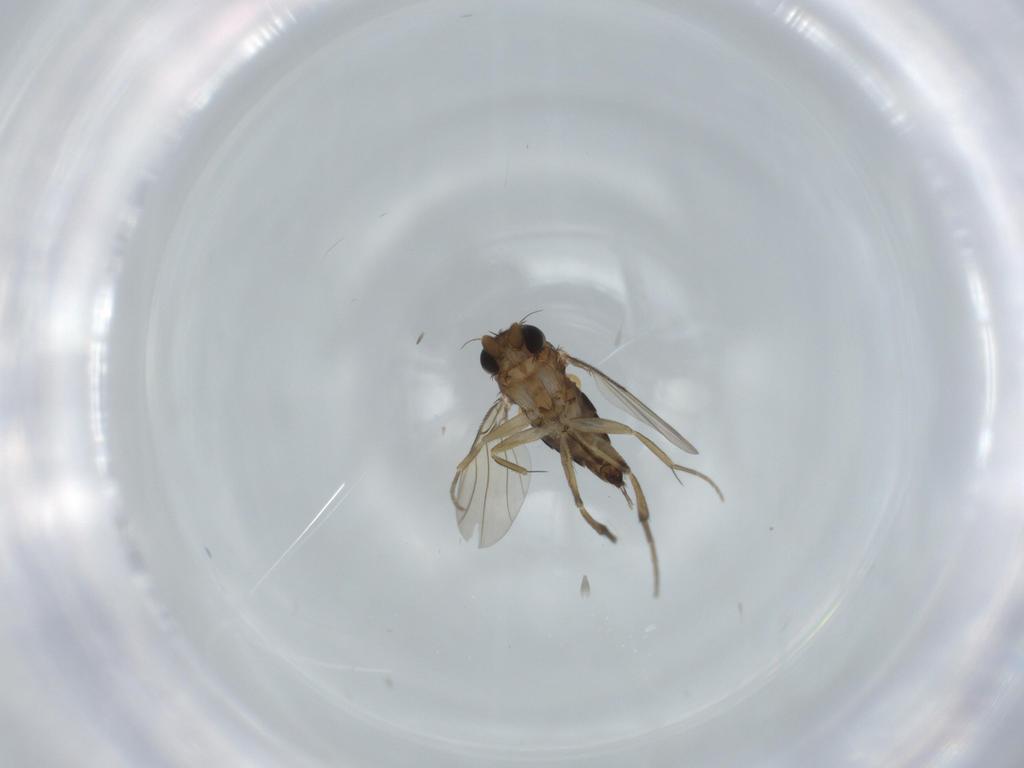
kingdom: Animalia
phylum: Arthropoda
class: Insecta
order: Diptera
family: Phoridae
